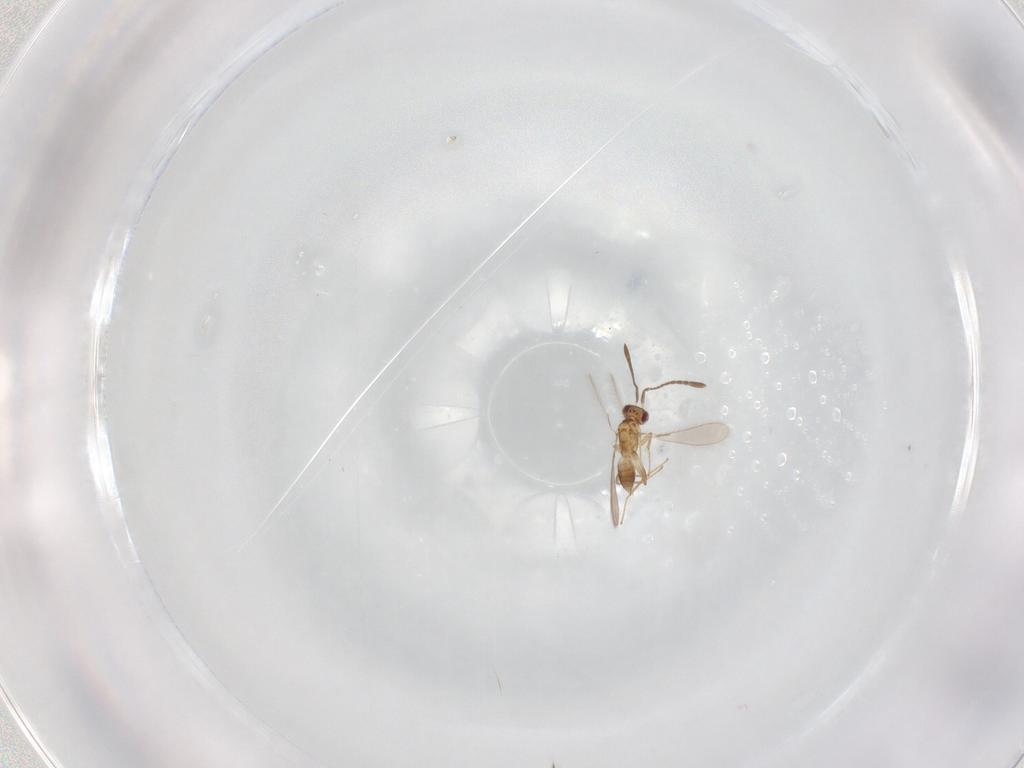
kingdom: Animalia
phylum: Arthropoda
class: Insecta
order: Hymenoptera
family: Mymaridae
